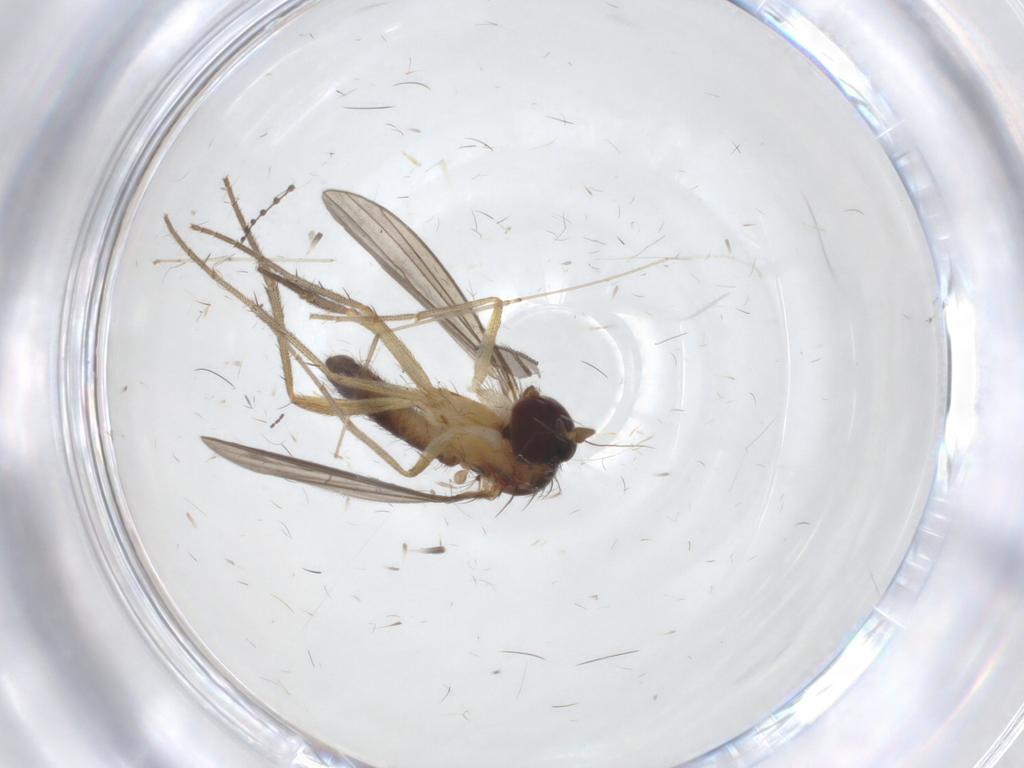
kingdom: Animalia
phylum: Arthropoda
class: Insecta
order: Diptera
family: Dolichopodidae
